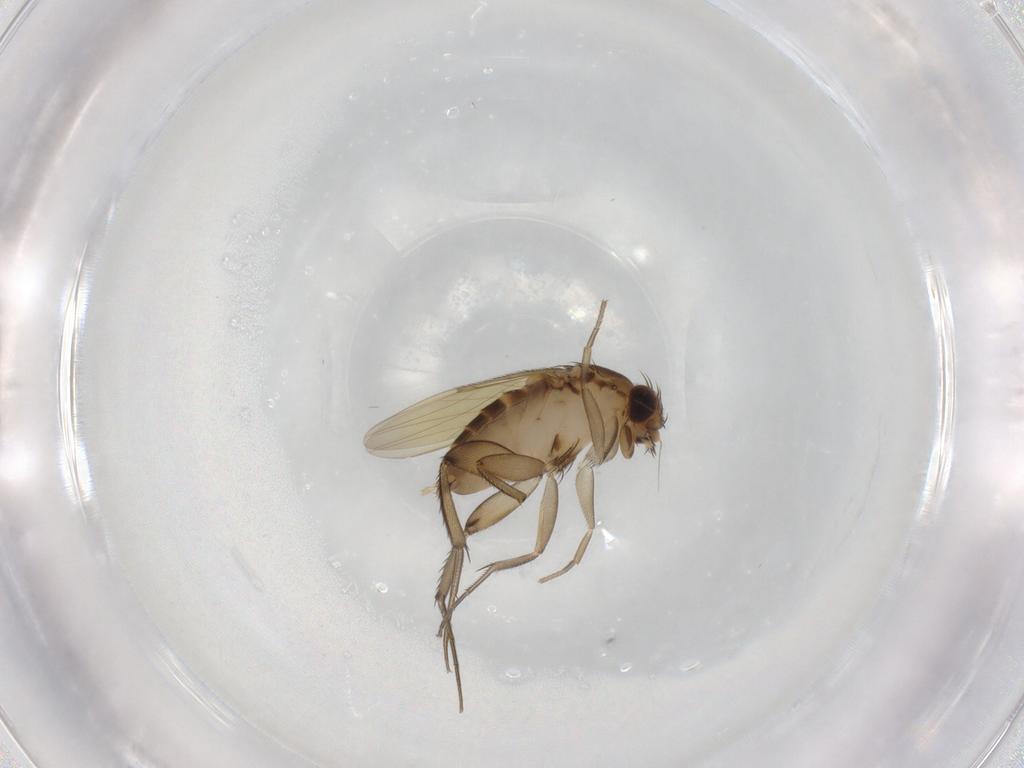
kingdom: Animalia
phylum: Arthropoda
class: Insecta
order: Diptera
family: Phoridae
